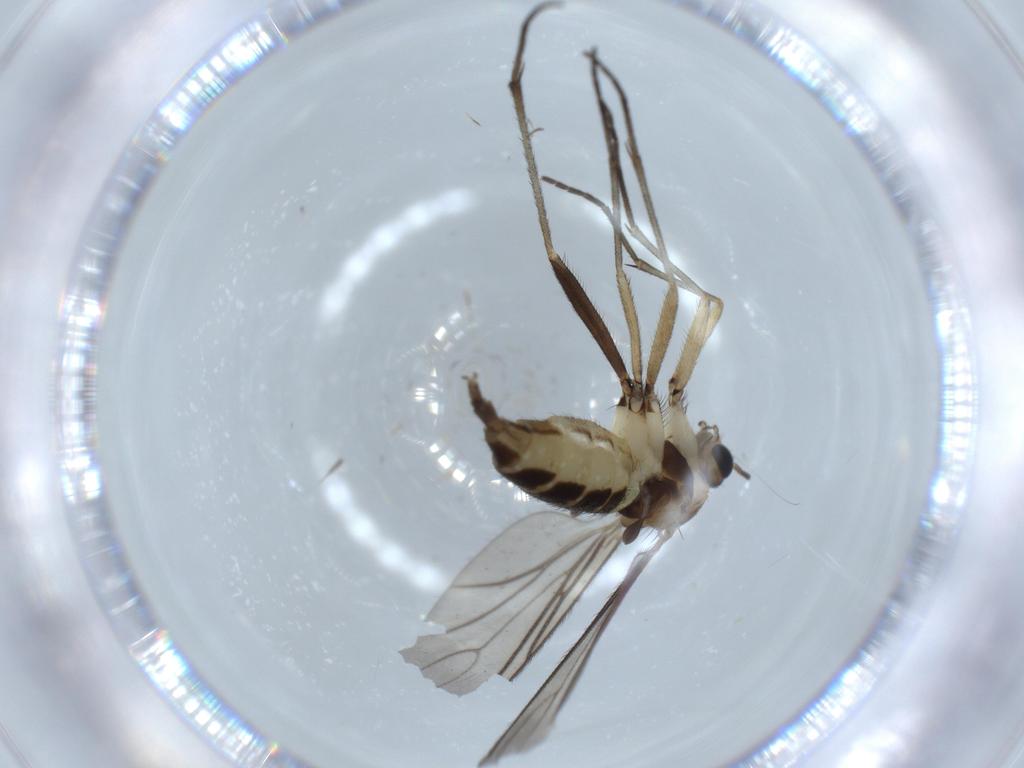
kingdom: Animalia
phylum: Arthropoda
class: Insecta
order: Diptera
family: Sciaridae
